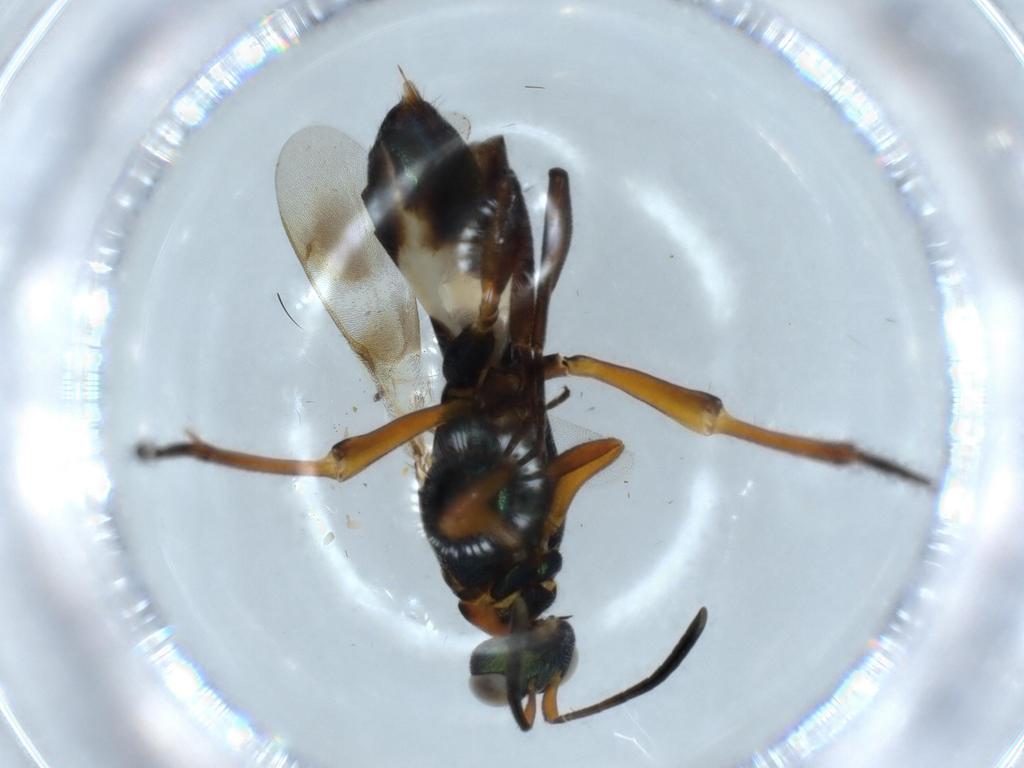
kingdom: Animalia
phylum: Arthropoda
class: Insecta
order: Hymenoptera
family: Eupelmidae
